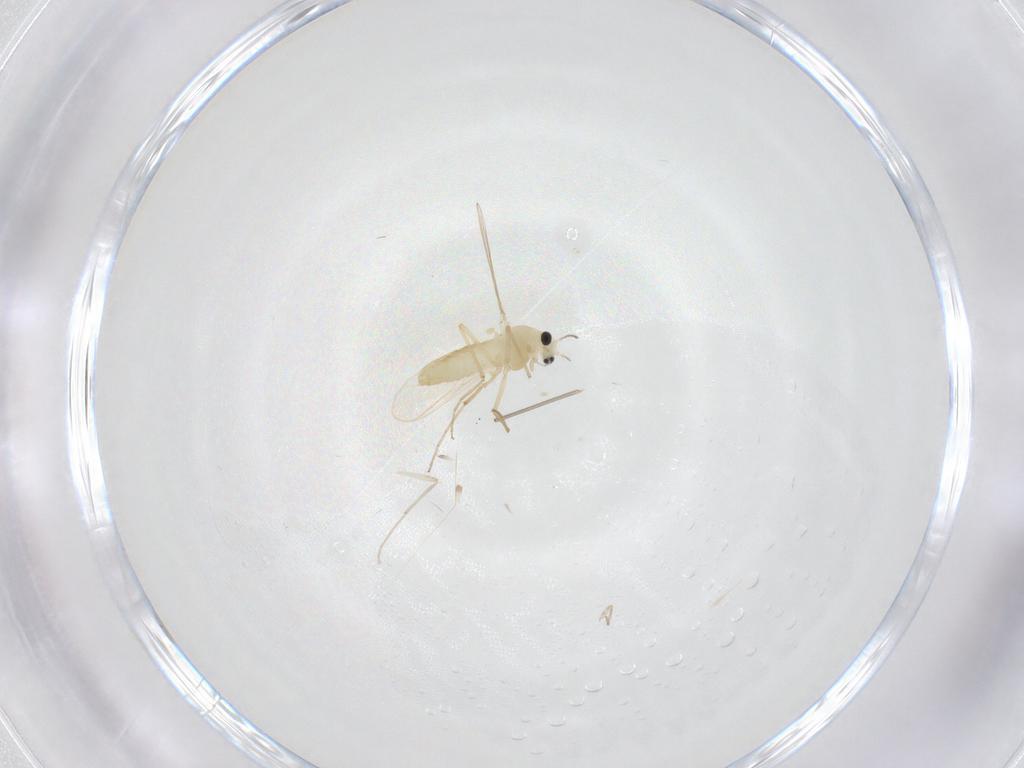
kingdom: Animalia
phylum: Arthropoda
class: Insecta
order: Diptera
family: Chironomidae
